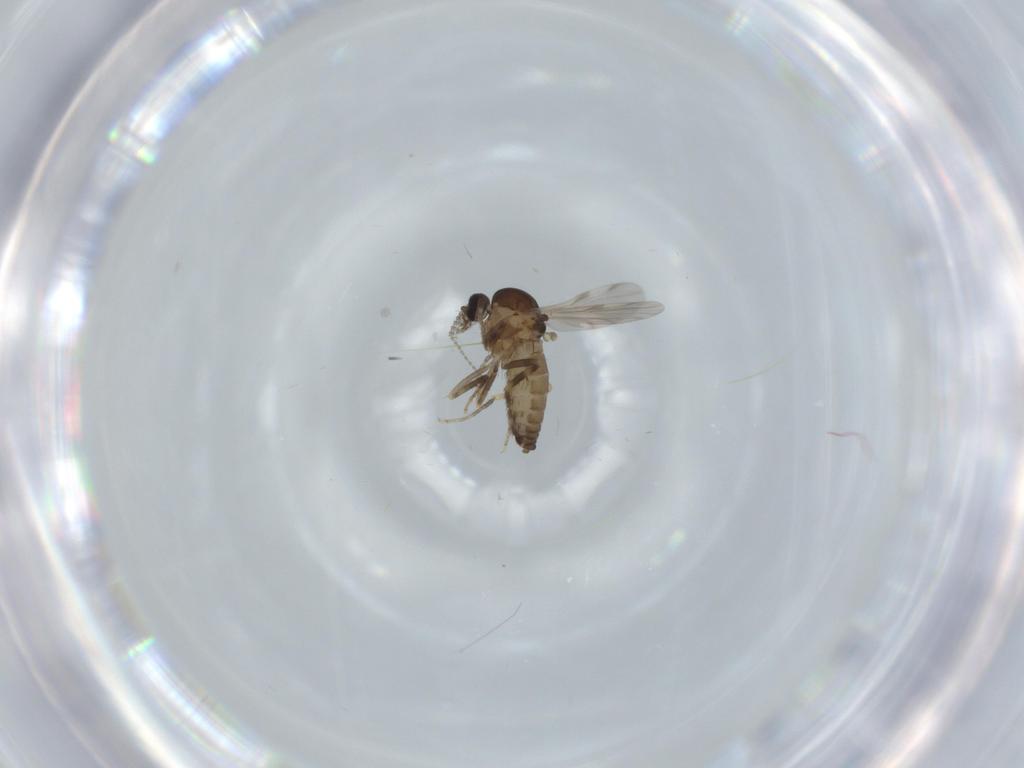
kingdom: Animalia
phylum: Arthropoda
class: Insecta
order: Diptera
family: Ceratopogonidae
